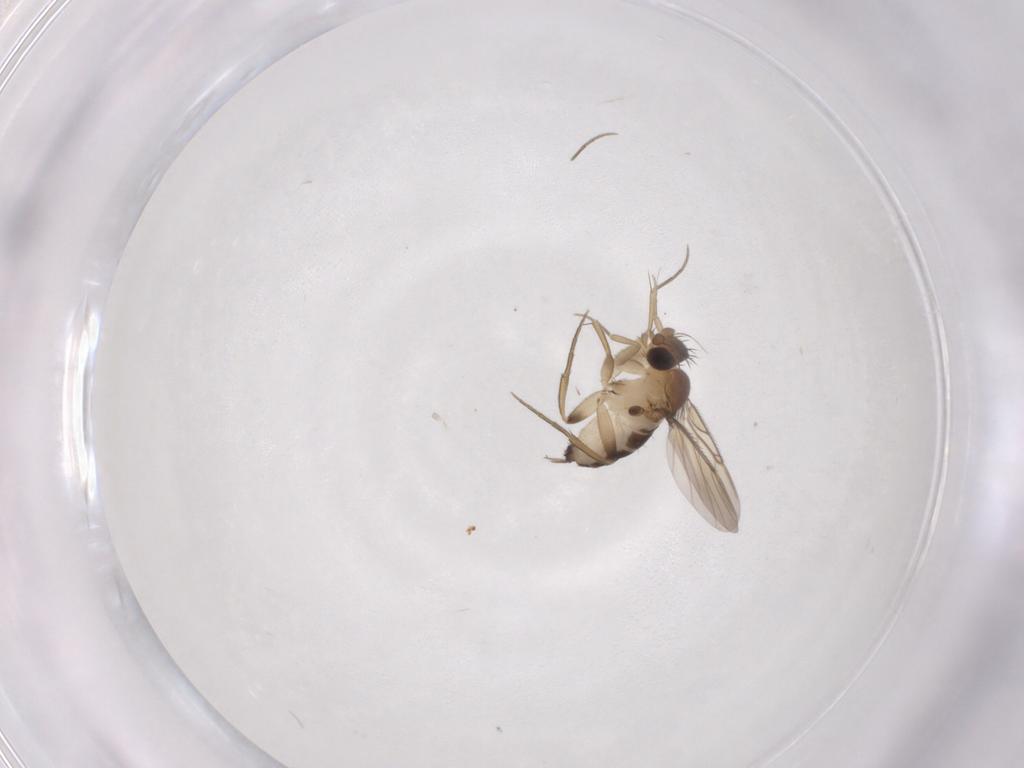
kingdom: Animalia
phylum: Arthropoda
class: Insecta
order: Diptera
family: Phoridae
